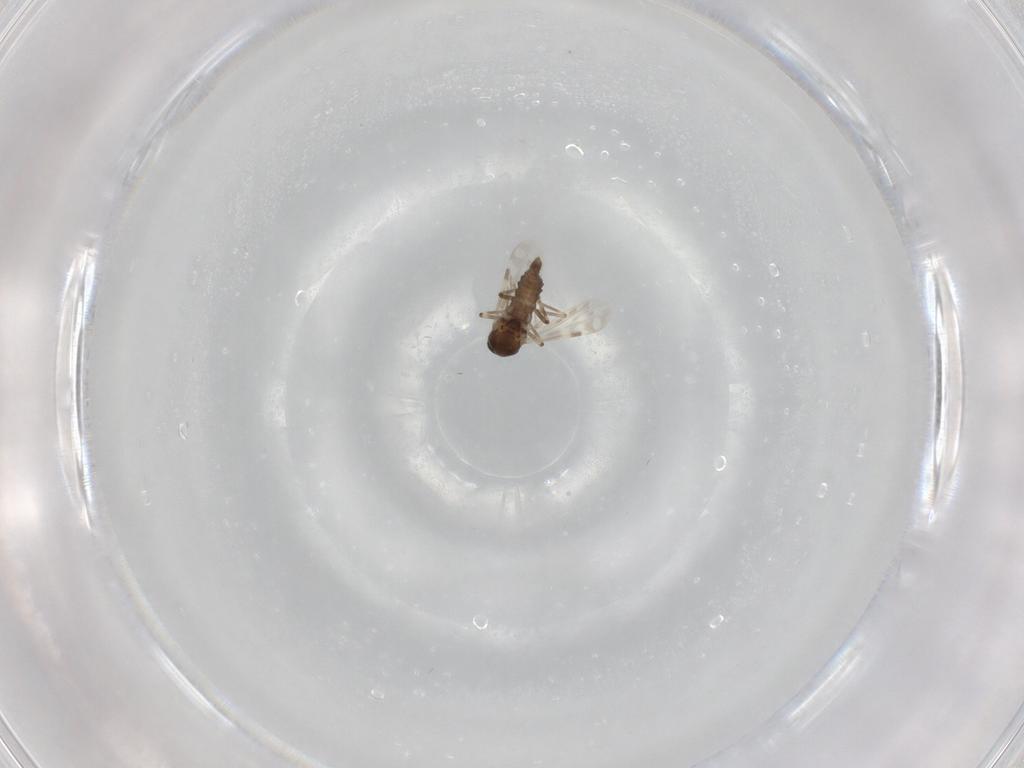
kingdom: Animalia
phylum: Arthropoda
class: Insecta
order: Diptera
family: Ceratopogonidae
